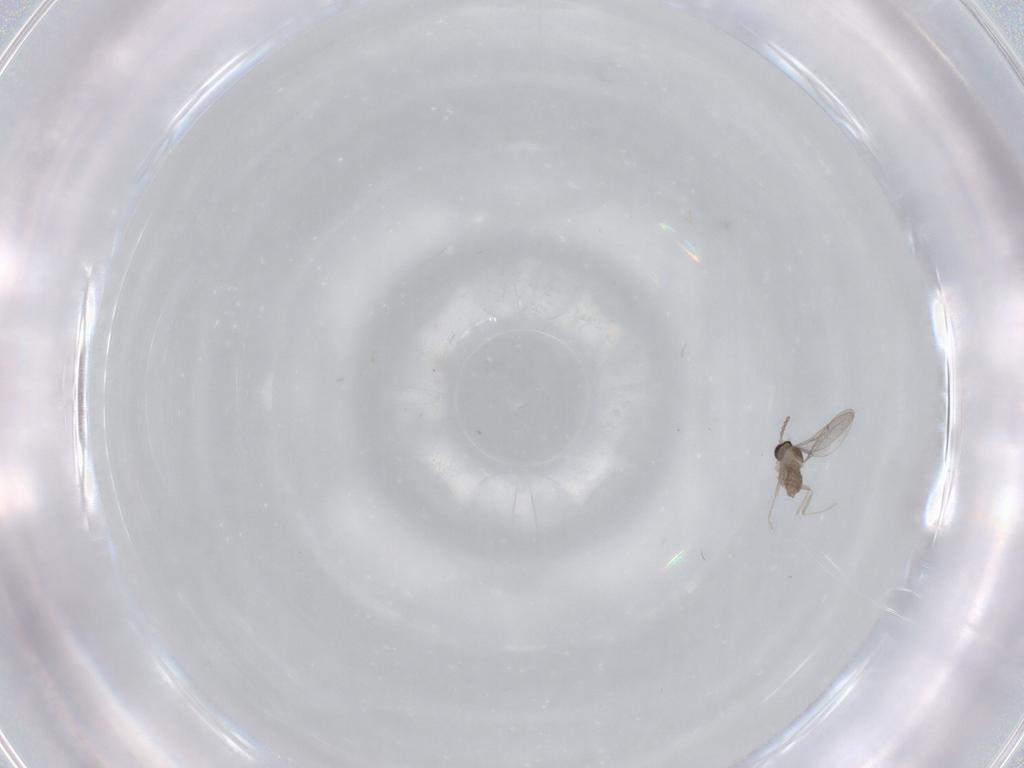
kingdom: Animalia
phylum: Arthropoda
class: Insecta
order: Diptera
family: Cecidomyiidae
